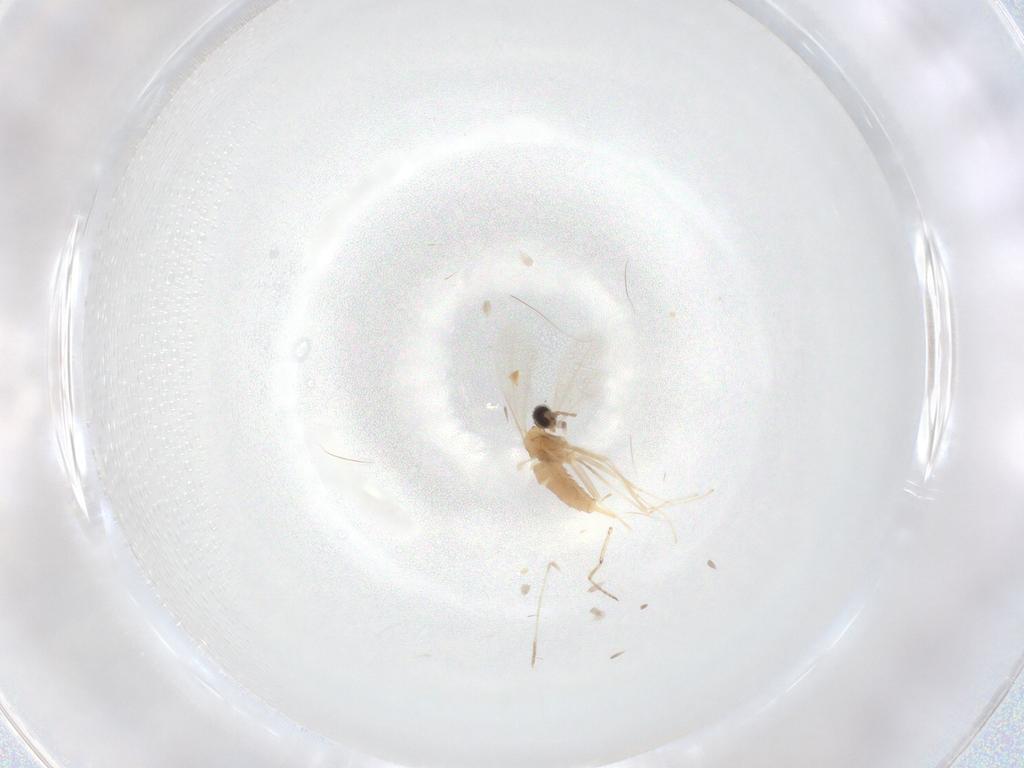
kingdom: Animalia
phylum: Arthropoda
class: Insecta
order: Diptera
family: Cecidomyiidae
